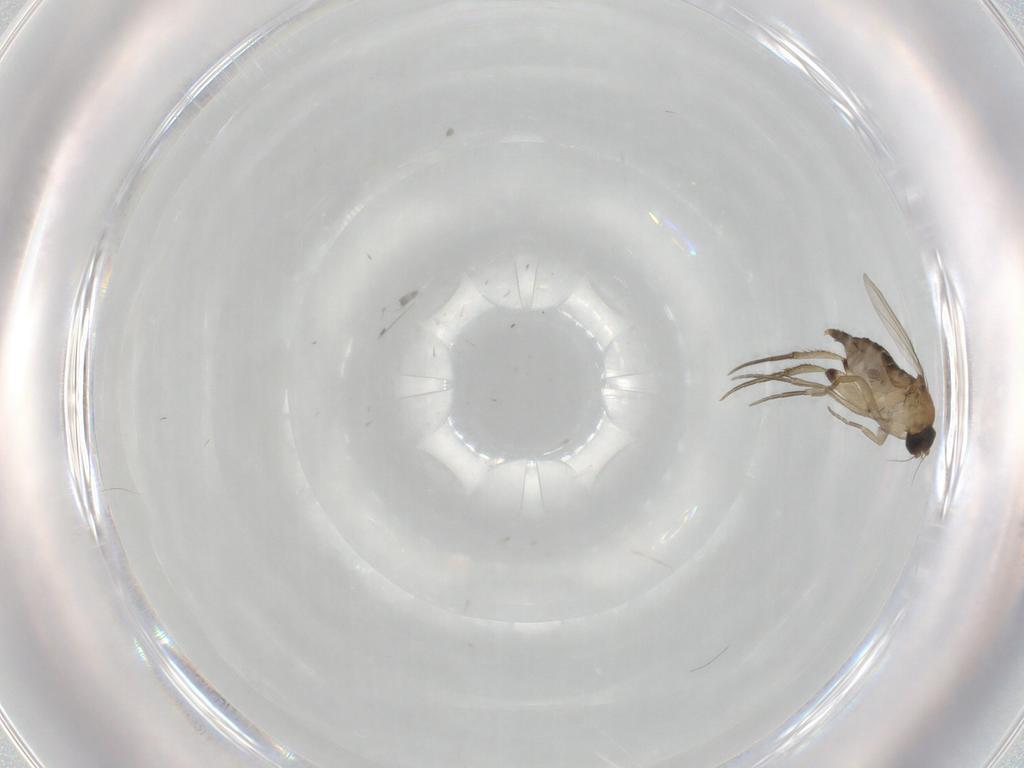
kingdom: Animalia
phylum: Arthropoda
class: Insecta
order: Diptera
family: Phoridae
